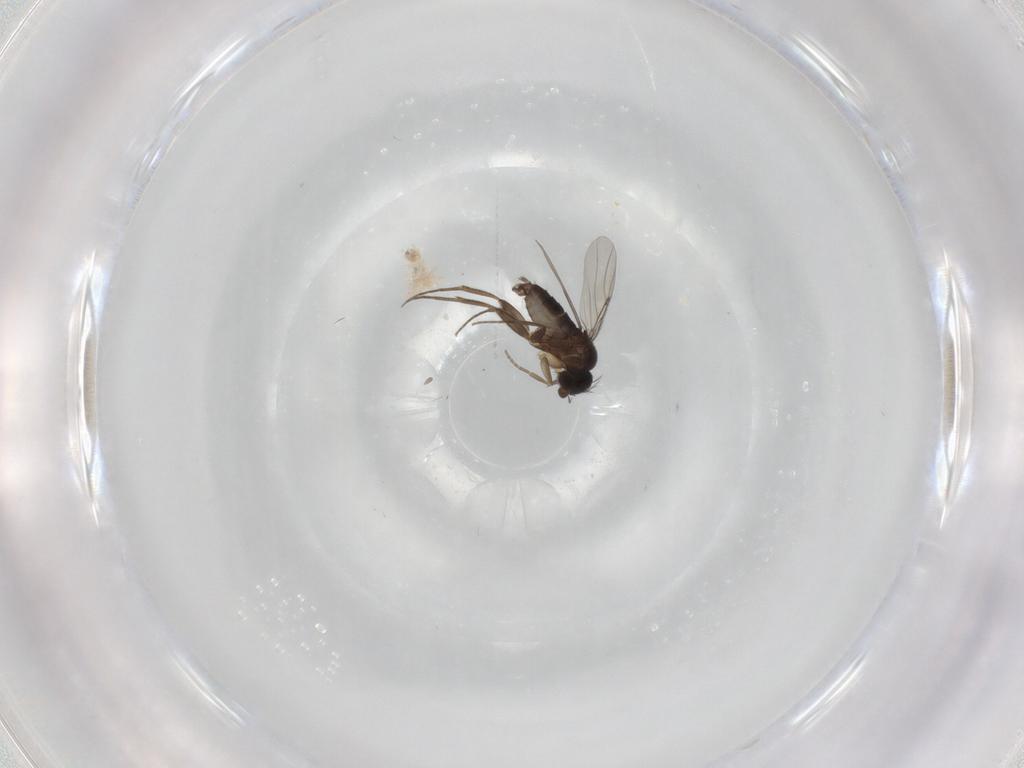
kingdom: Animalia
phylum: Arthropoda
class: Insecta
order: Diptera
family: Phoridae
